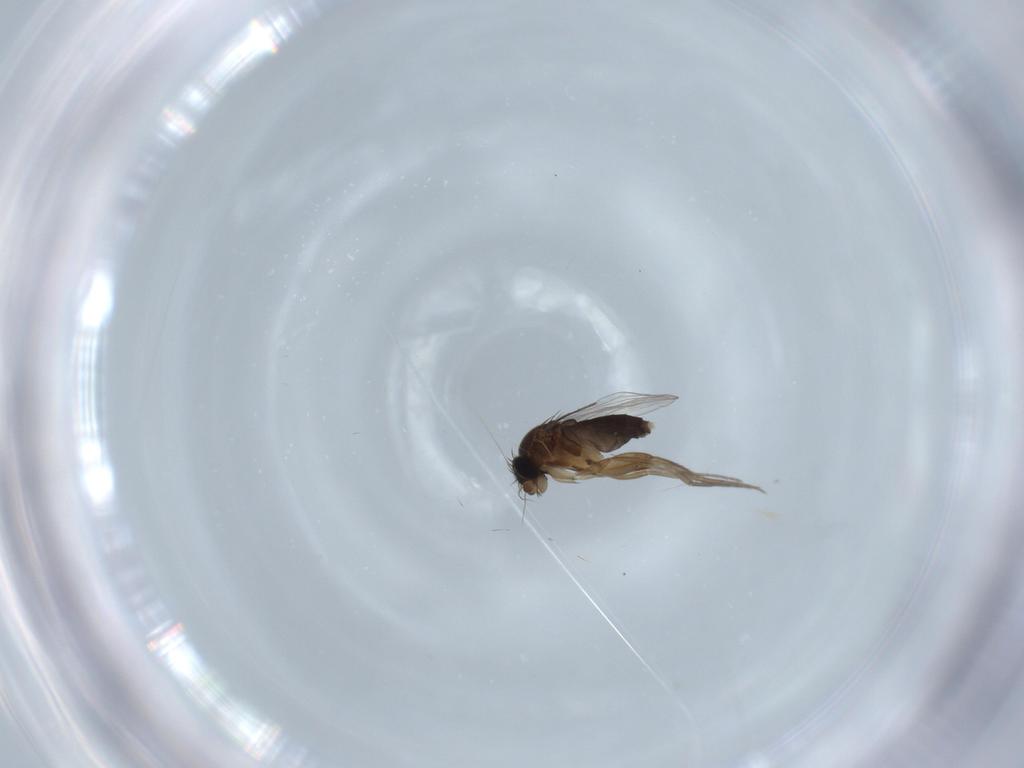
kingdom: Animalia
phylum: Arthropoda
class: Insecta
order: Diptera
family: Phoridae
